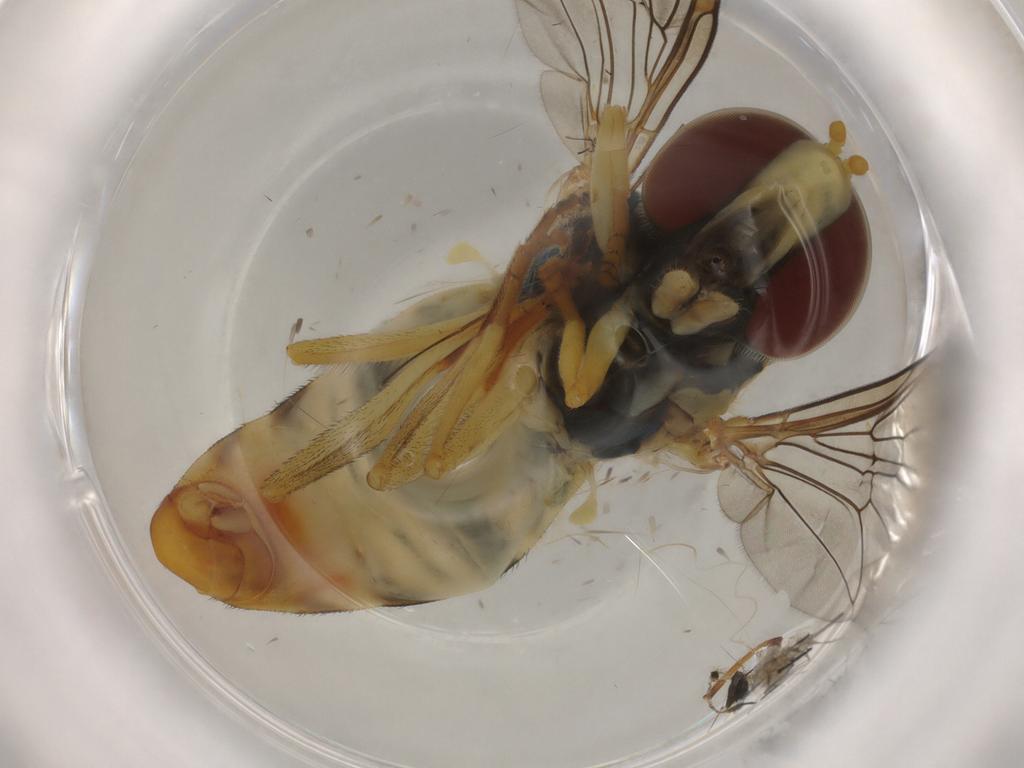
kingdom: Animalia
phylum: Arthropoda
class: Insecta
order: Diptera
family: Syrphidae
